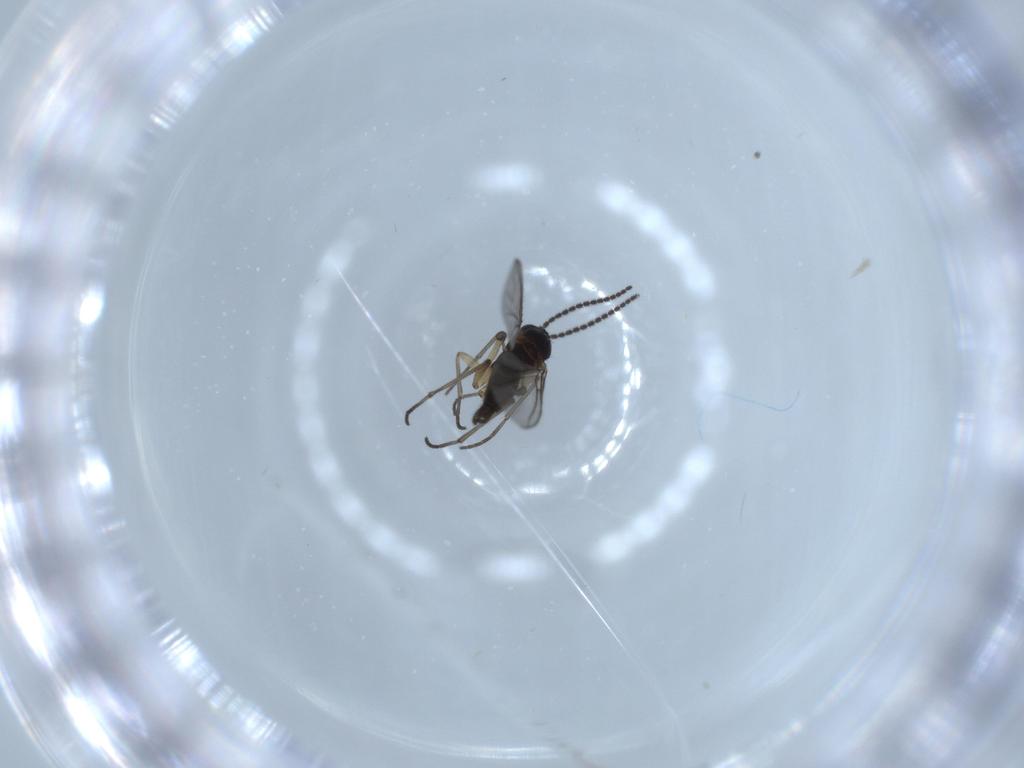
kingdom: Animalia
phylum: Arthropoda
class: Insecta
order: Diptera
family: Sciaridae
